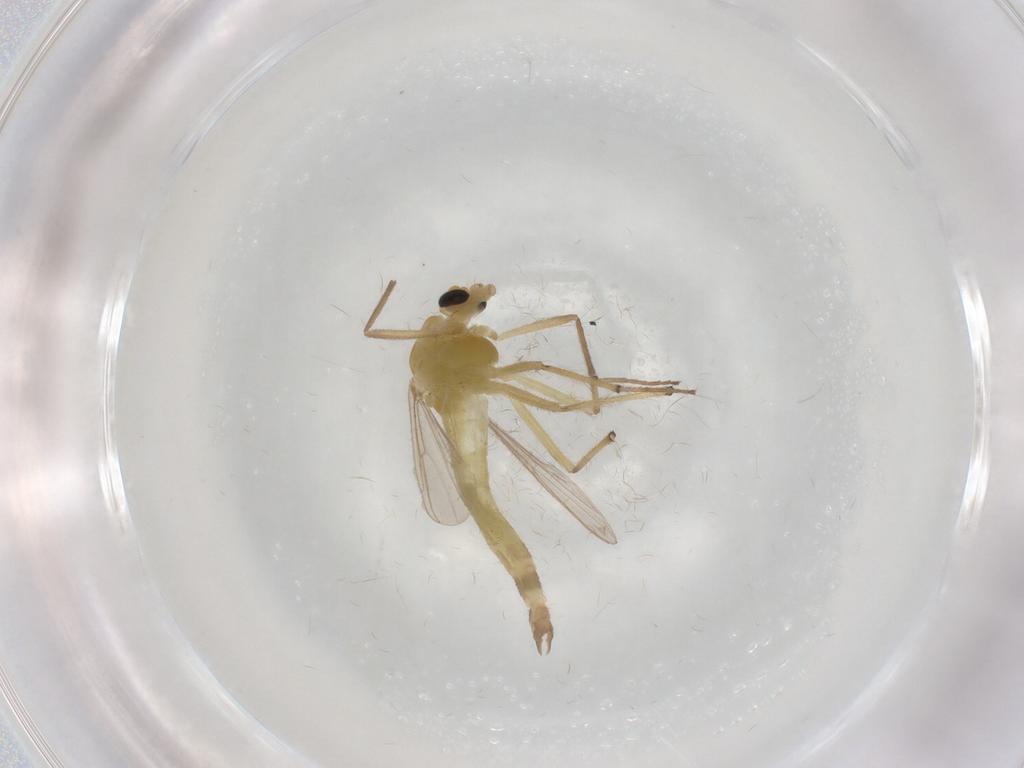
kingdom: Animalia
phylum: Arthropoda
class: Insecta
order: Diptera
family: Chironomidae
